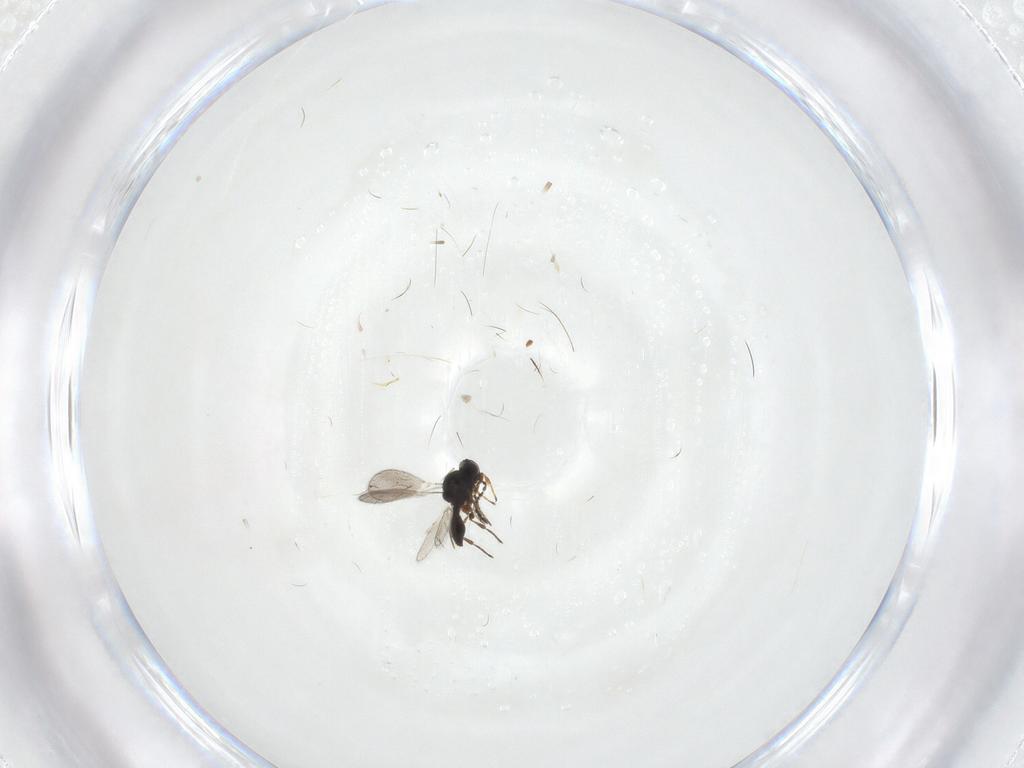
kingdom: Animalia
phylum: Arthropoda
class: Insecta
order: Hymenoptera
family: Platygastridae
